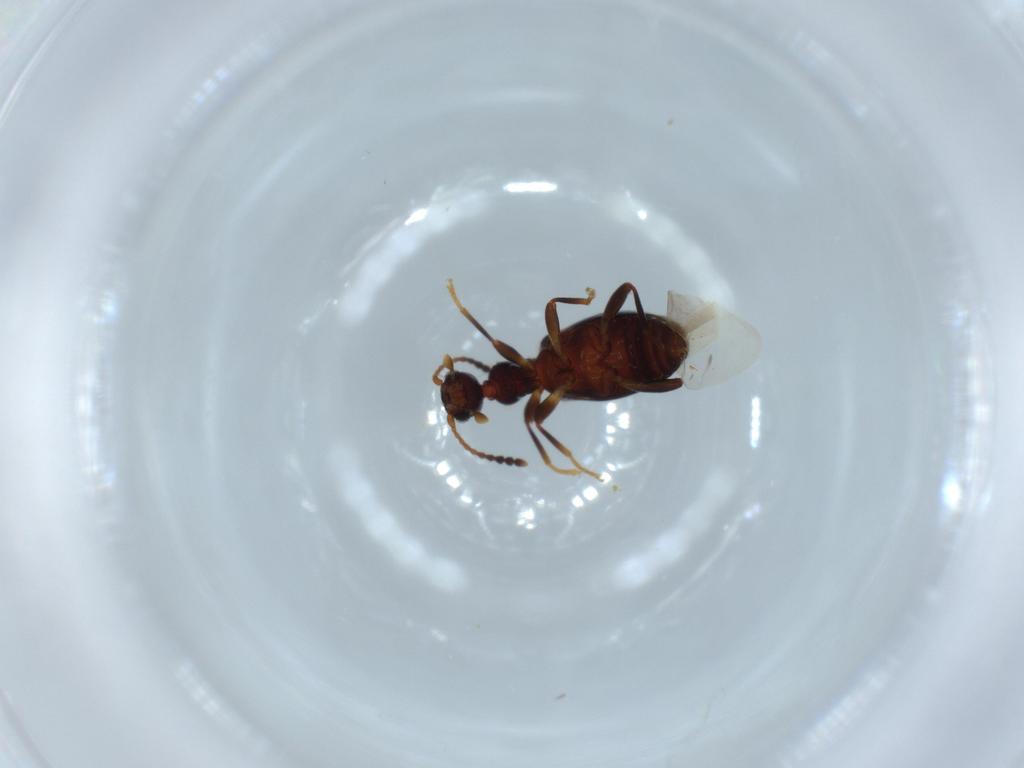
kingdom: Animalia
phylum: Arthropoda
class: Insecta
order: Coleoptera
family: Anthicidae
